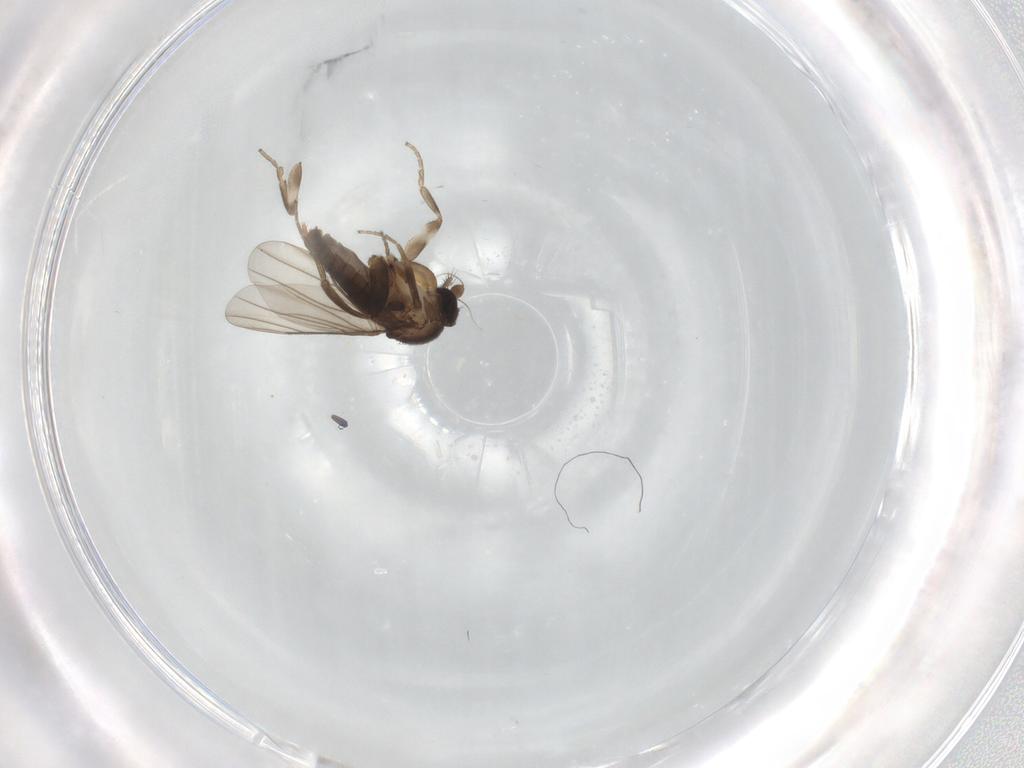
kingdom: Animalia
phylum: Arthropoda
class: Insecta
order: Diptera
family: Phoridae
